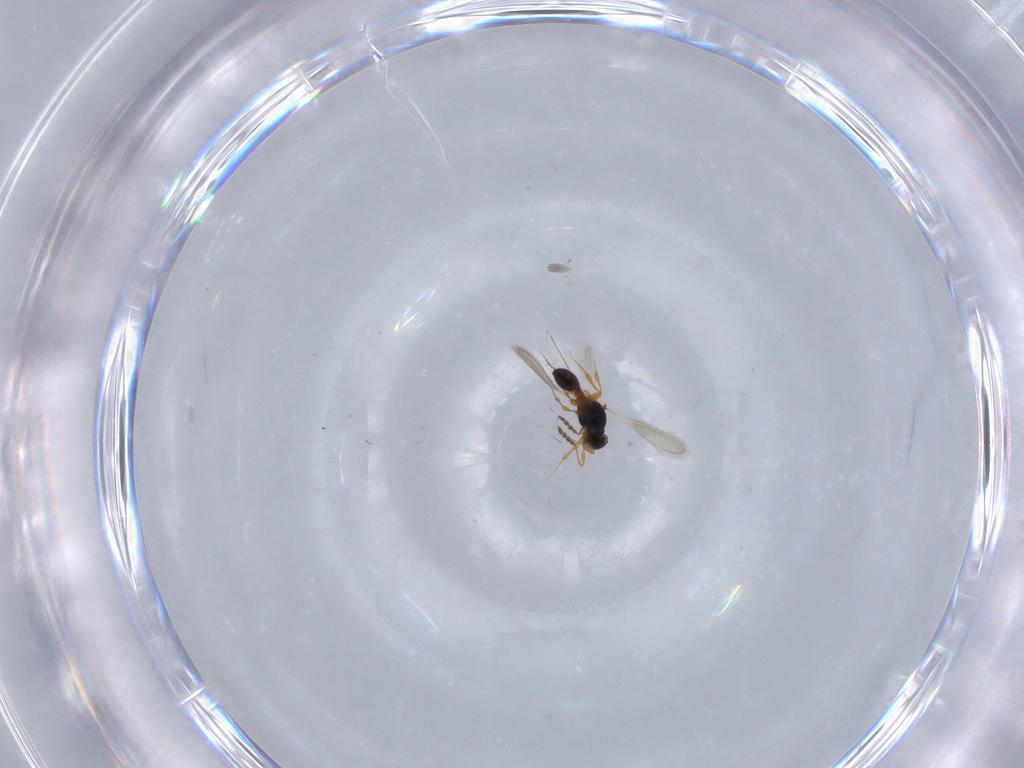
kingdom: Animalia
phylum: Arthropoda
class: Insecta
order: Hymenoptera
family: Platygastridae
